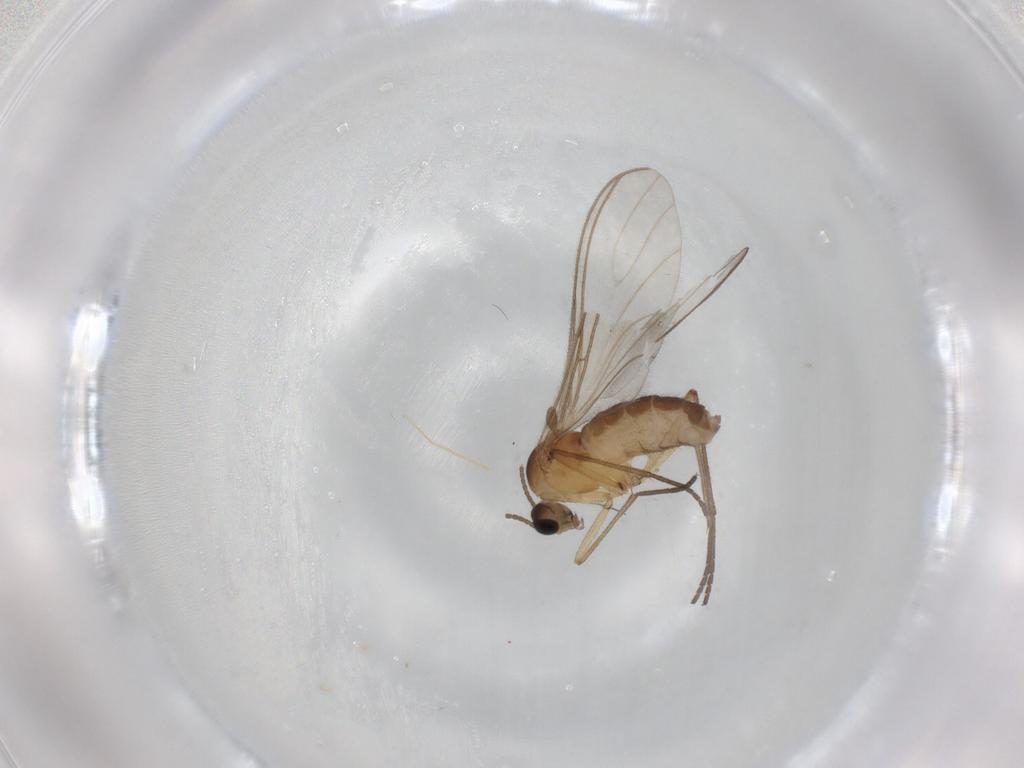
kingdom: Animalia
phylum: Arthropoda
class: Insecta
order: Diptera
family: Sciaridae
